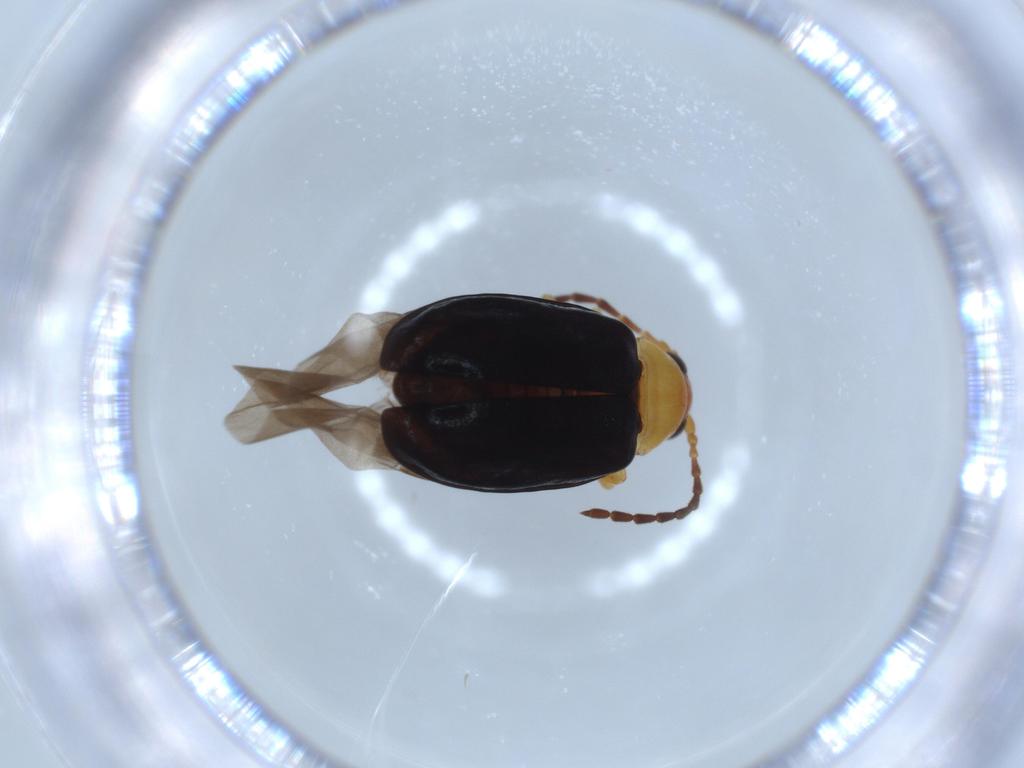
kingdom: Animalia
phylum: Arthropoda
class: Insecta
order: Coleoptera
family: Chrysomelidae
